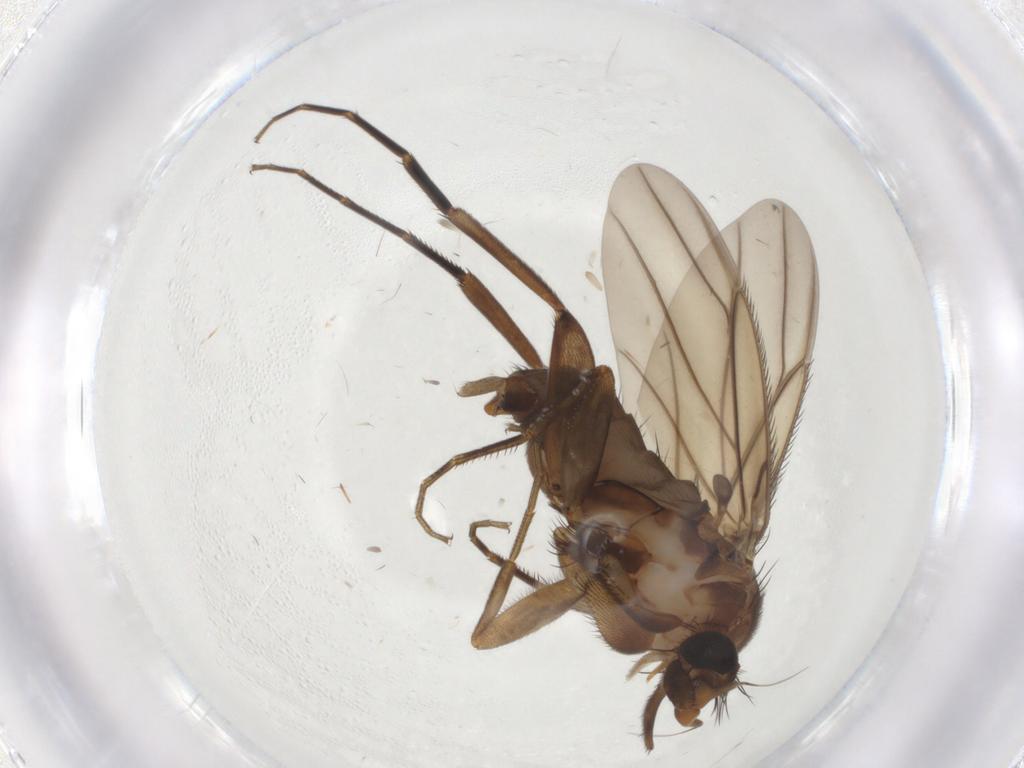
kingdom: Animalia
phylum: Arthropoda
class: Insecta
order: Diptera
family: Phoridae
